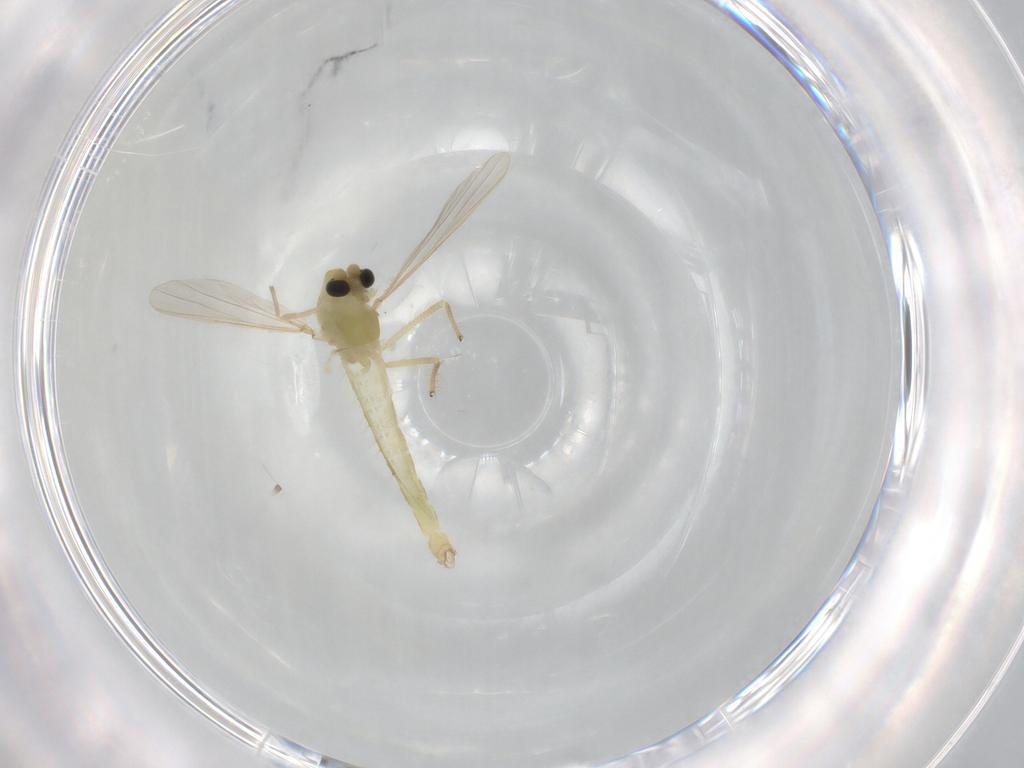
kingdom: Animalia
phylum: Arthropoda
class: Insecta
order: Diptera
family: Chironomidae
